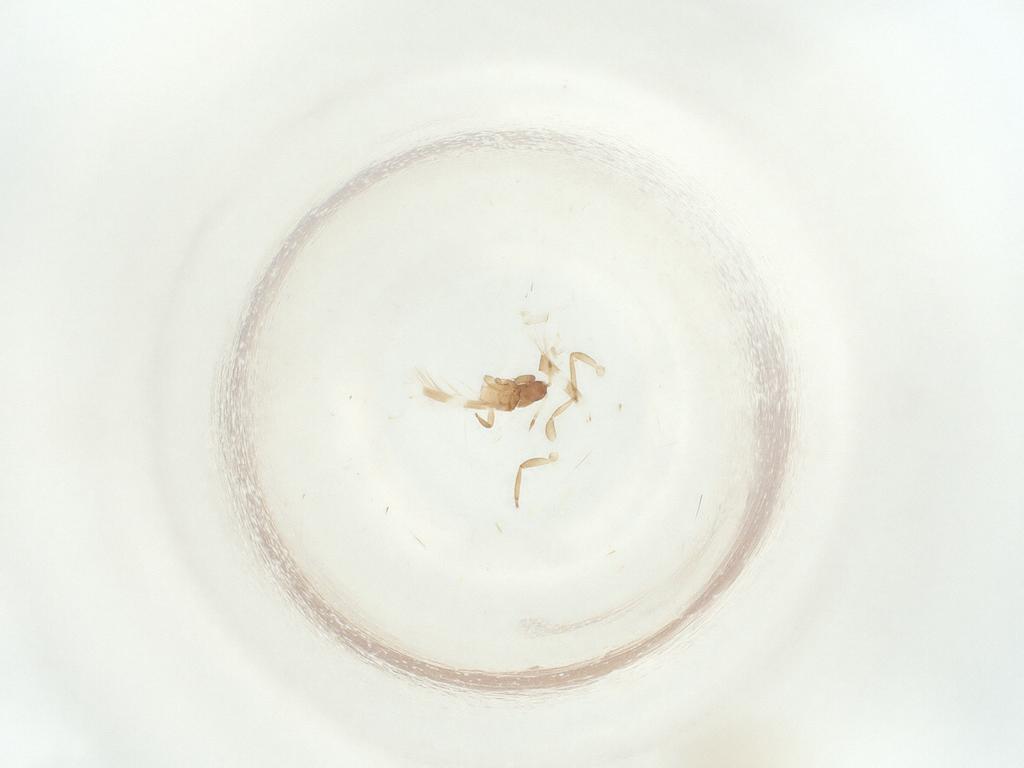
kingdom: Animalia
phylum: Arthropoda
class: Insecta
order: Thysanoptera
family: Aeolothripidae
